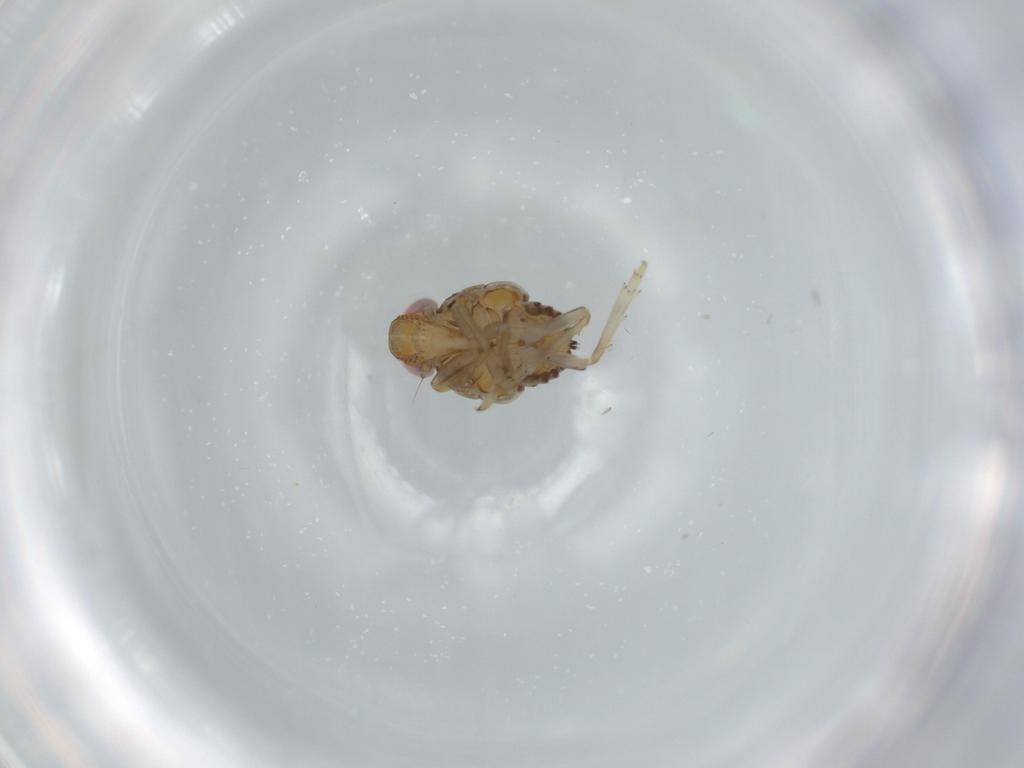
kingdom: Animalia
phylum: Arthropoda
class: Insecta
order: Hemiptera
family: Issidae
